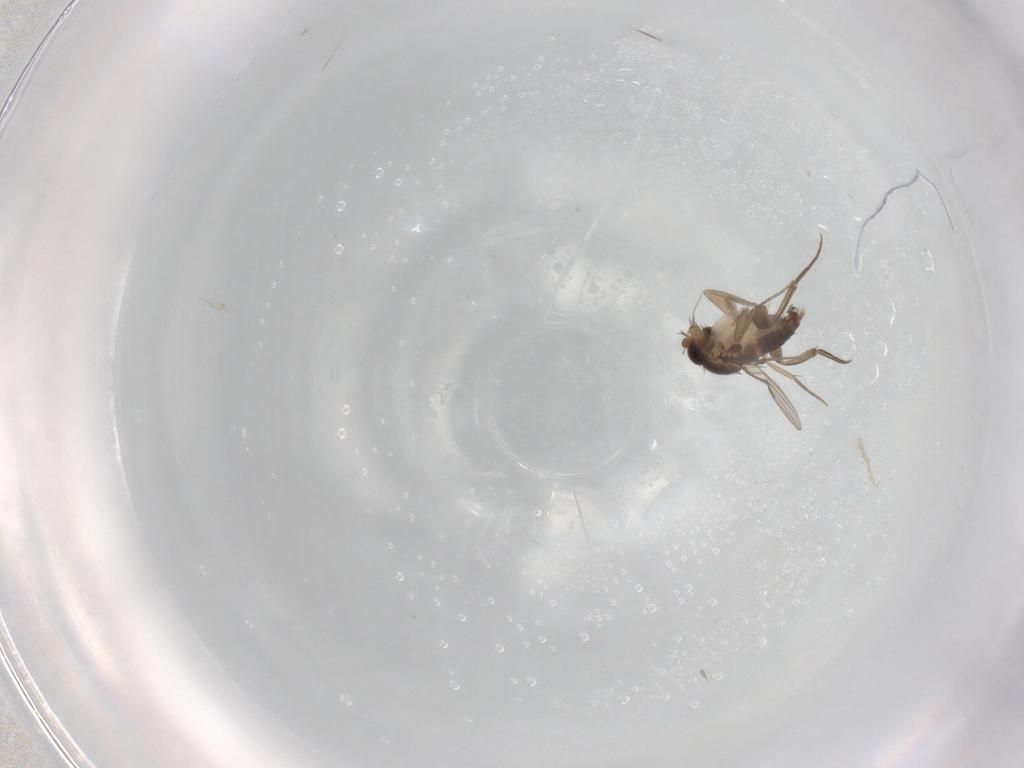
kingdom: Animalia
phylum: Arthropoda
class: Insecta
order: Diptera
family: Phoridae
